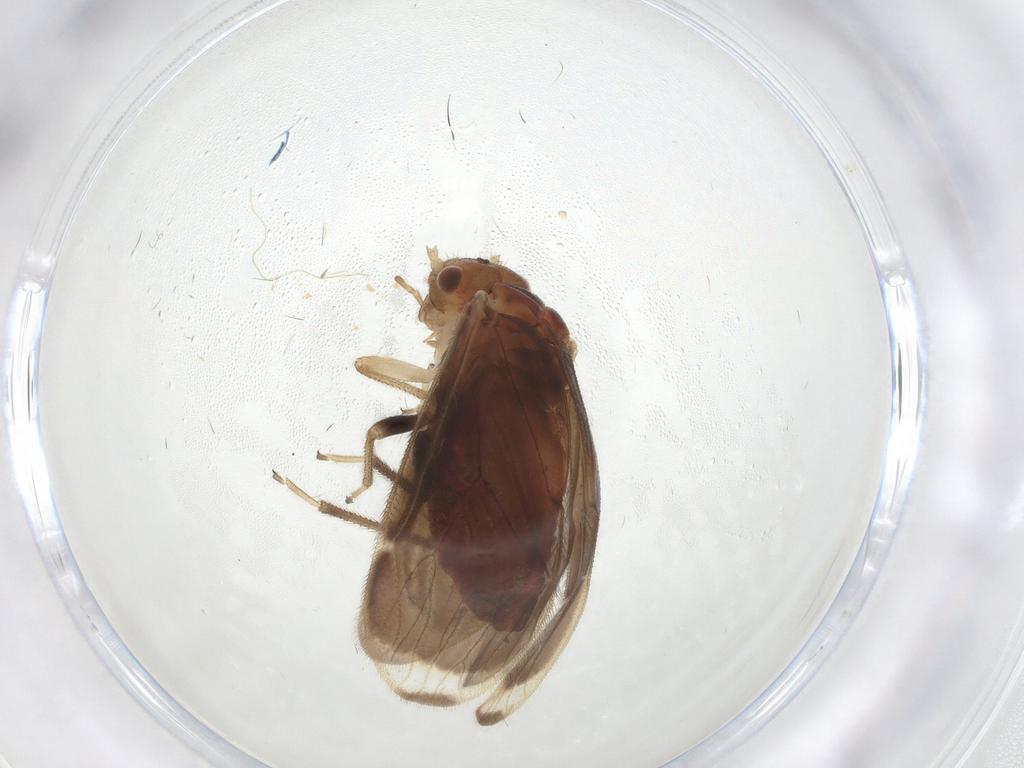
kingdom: Animalia
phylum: Arthropoda
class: Insecta
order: Psocodea
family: Amphipsocidae
